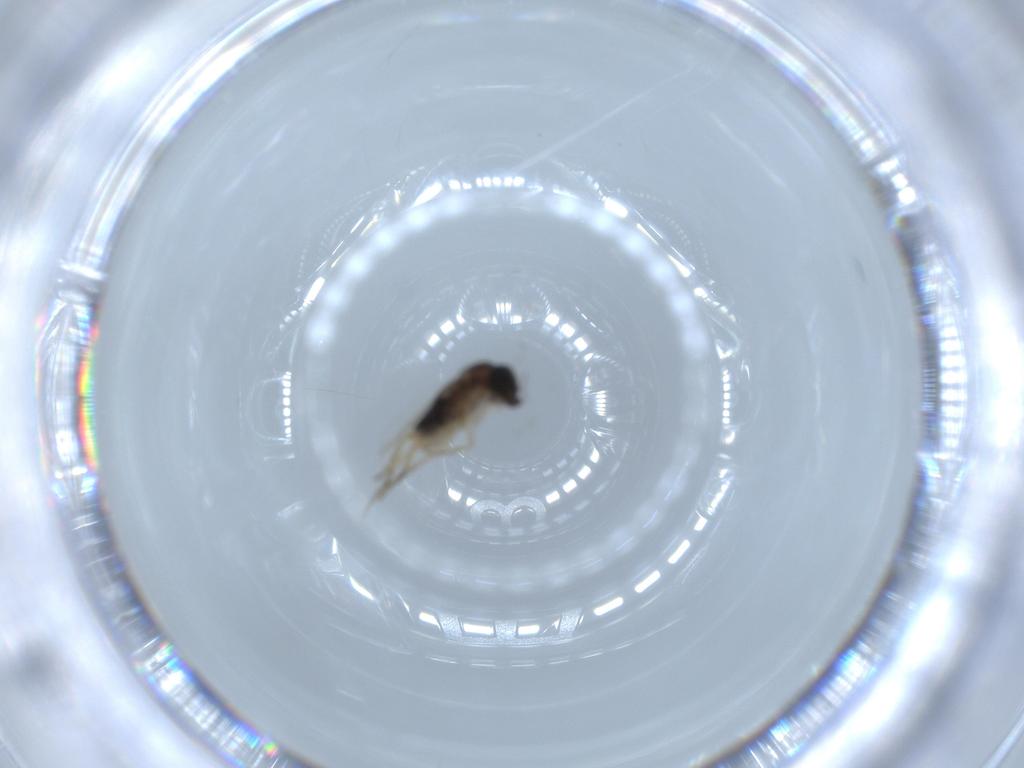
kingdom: Animalia
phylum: Arthropoda
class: Insecta
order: Diptera
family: Phoridae
